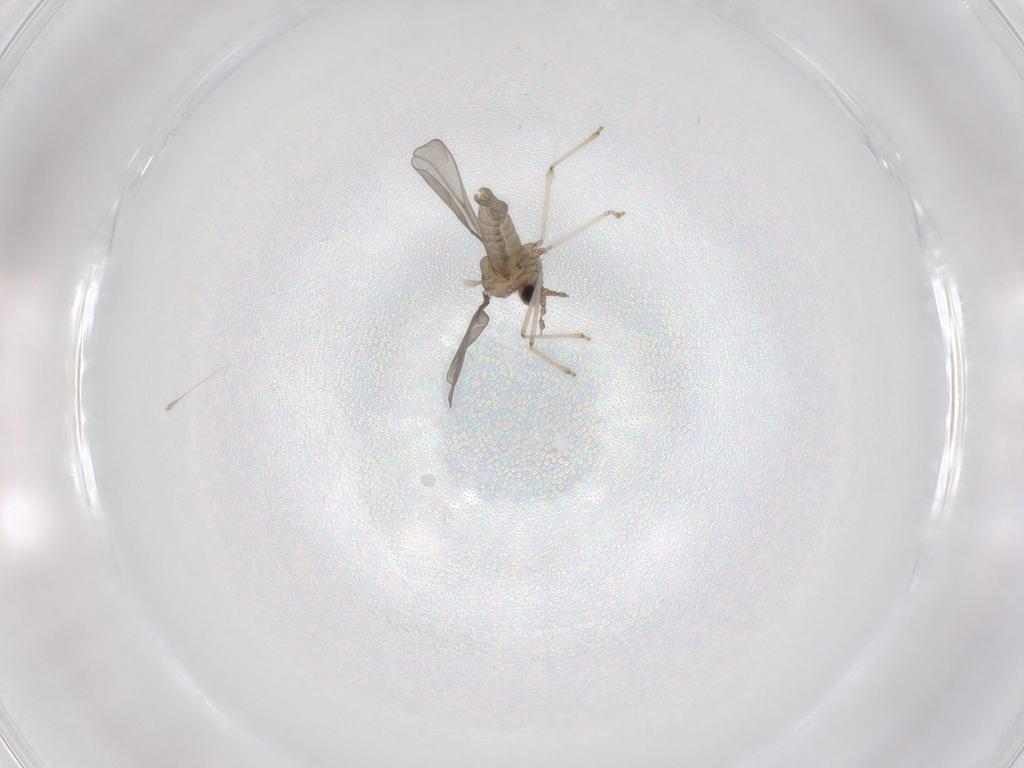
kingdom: Animalia
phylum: Arthropoda
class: Insecta
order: Diptera
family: Cecidomyiidae
